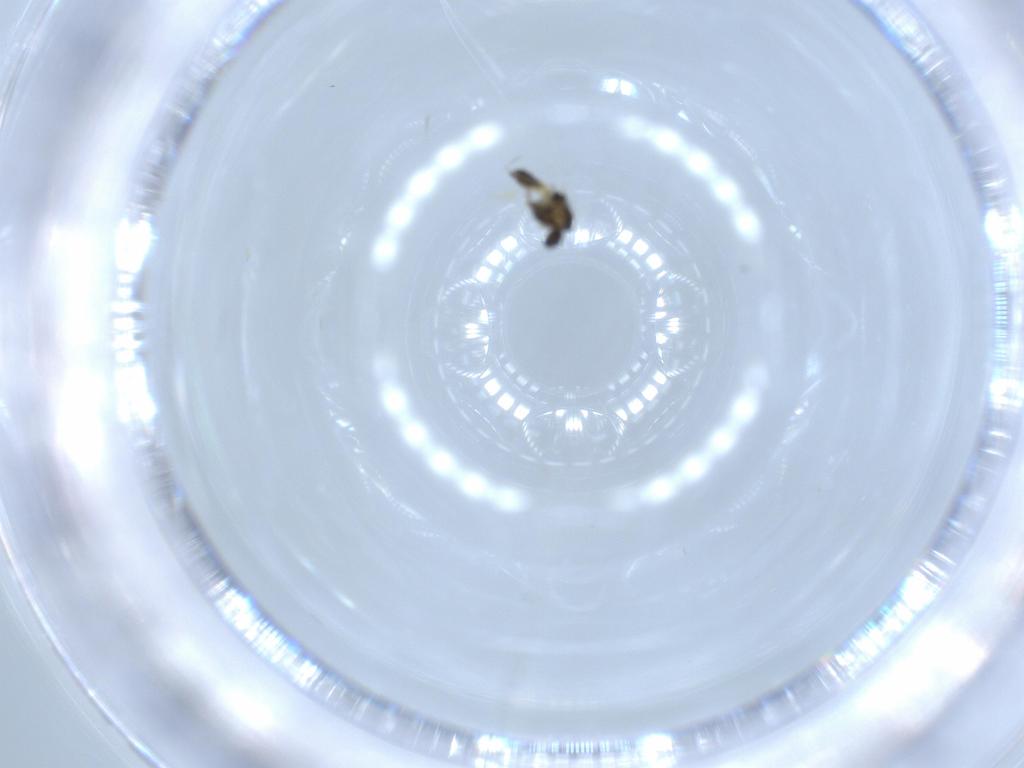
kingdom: Animalia
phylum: Arthropoda
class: Insecta
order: Diptera
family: Chironomidae
